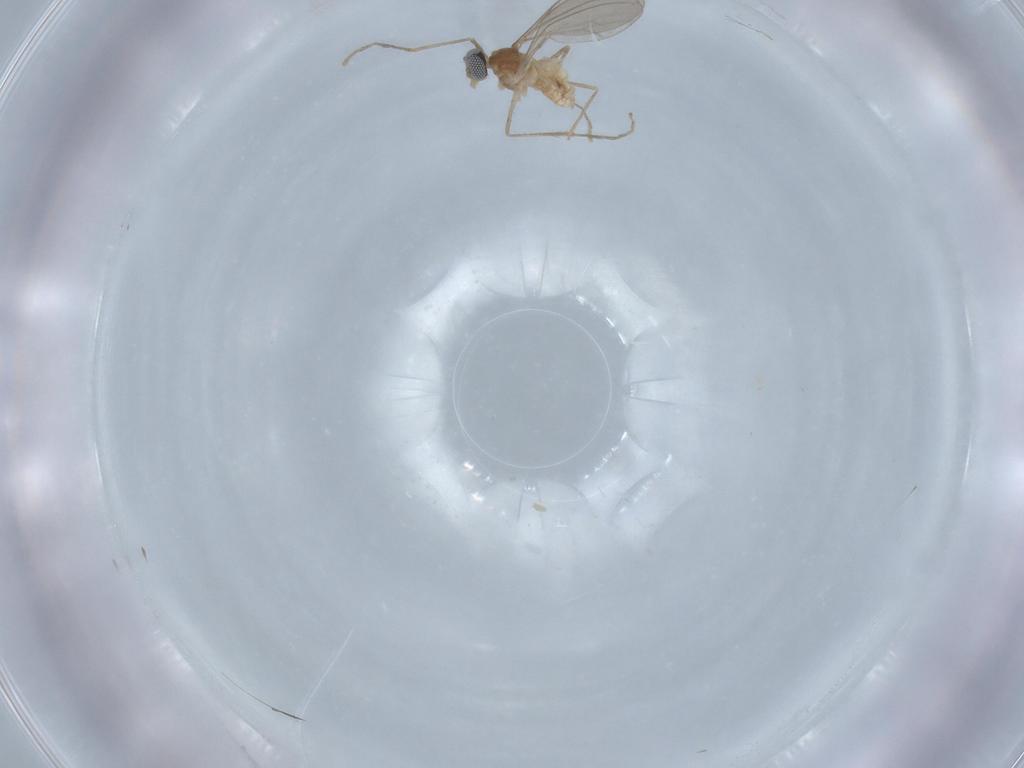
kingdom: Animalia
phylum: Arthropoda
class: Insecta
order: Diptera
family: Cecidomyiidae
